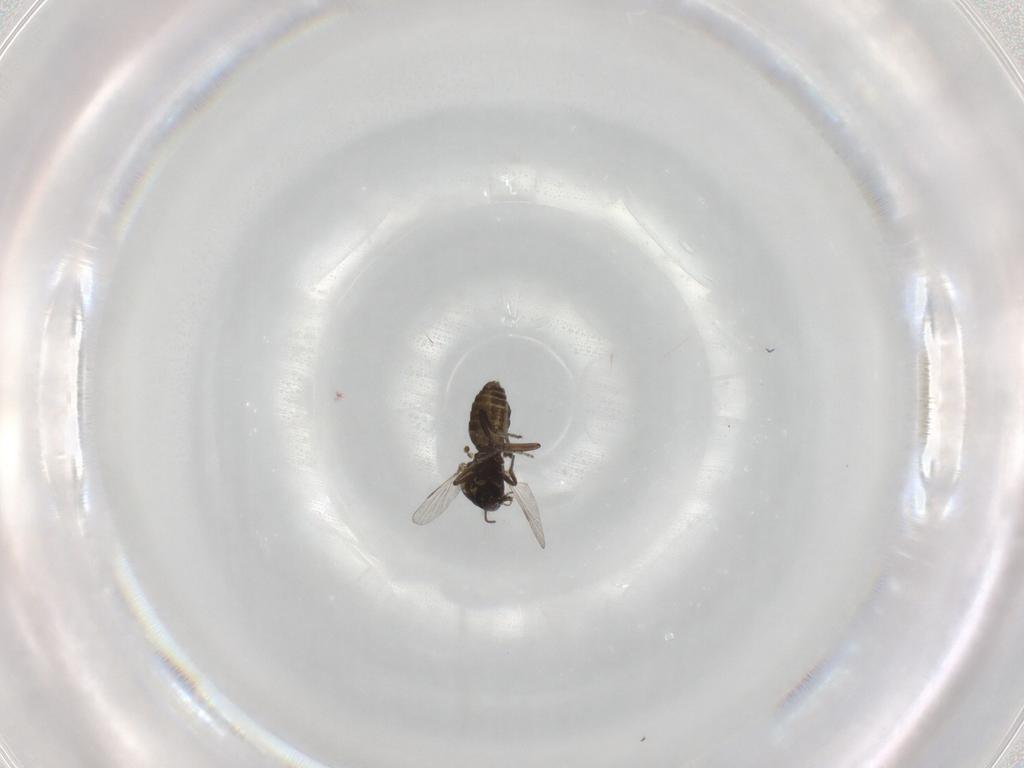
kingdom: Animalia
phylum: Arthropoda
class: Insecta
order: Diptera
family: Ceratopogonidae
